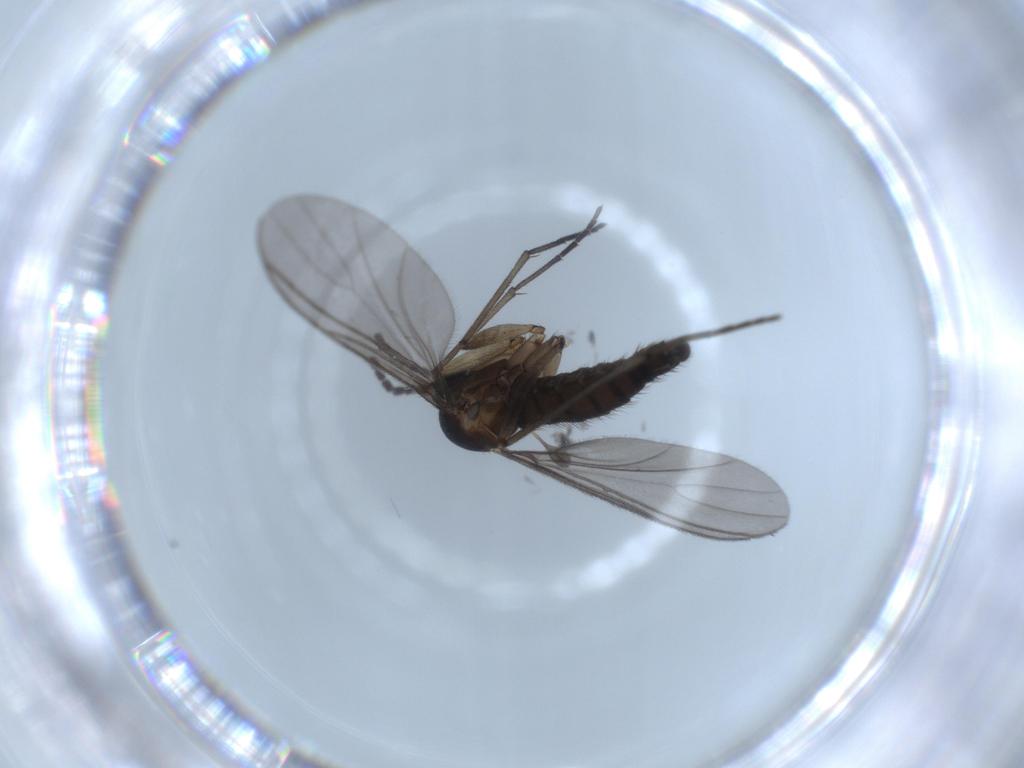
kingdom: Animalia
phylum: Arthropoda
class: Insecta
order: Diptera
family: Sciaridae
